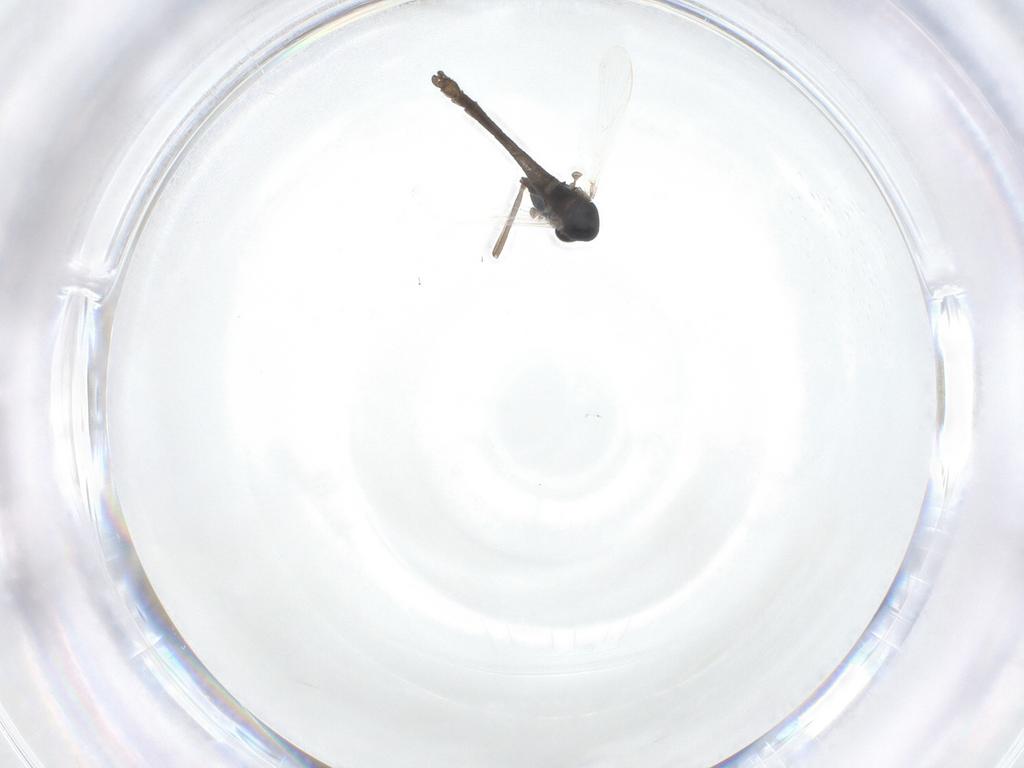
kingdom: Animalia
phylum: Arthropoda
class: Insecta
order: Diptera
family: Chironomidae
